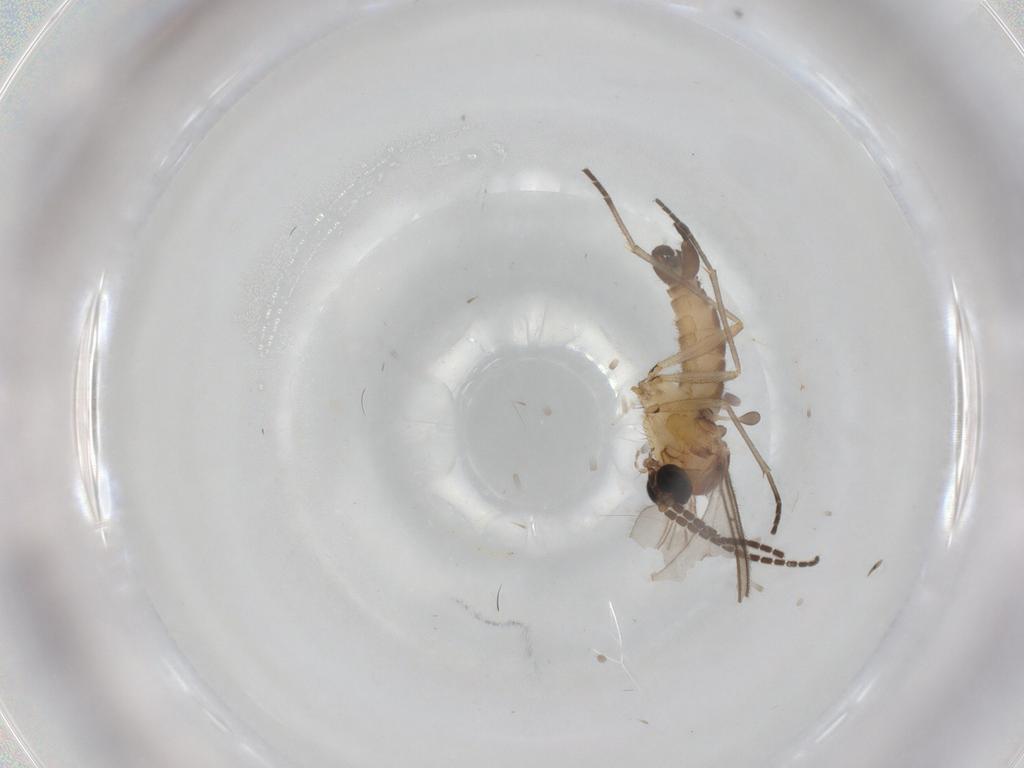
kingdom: Animalia
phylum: Arthropoda
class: Insecta
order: Diptera
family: Sciaridae
